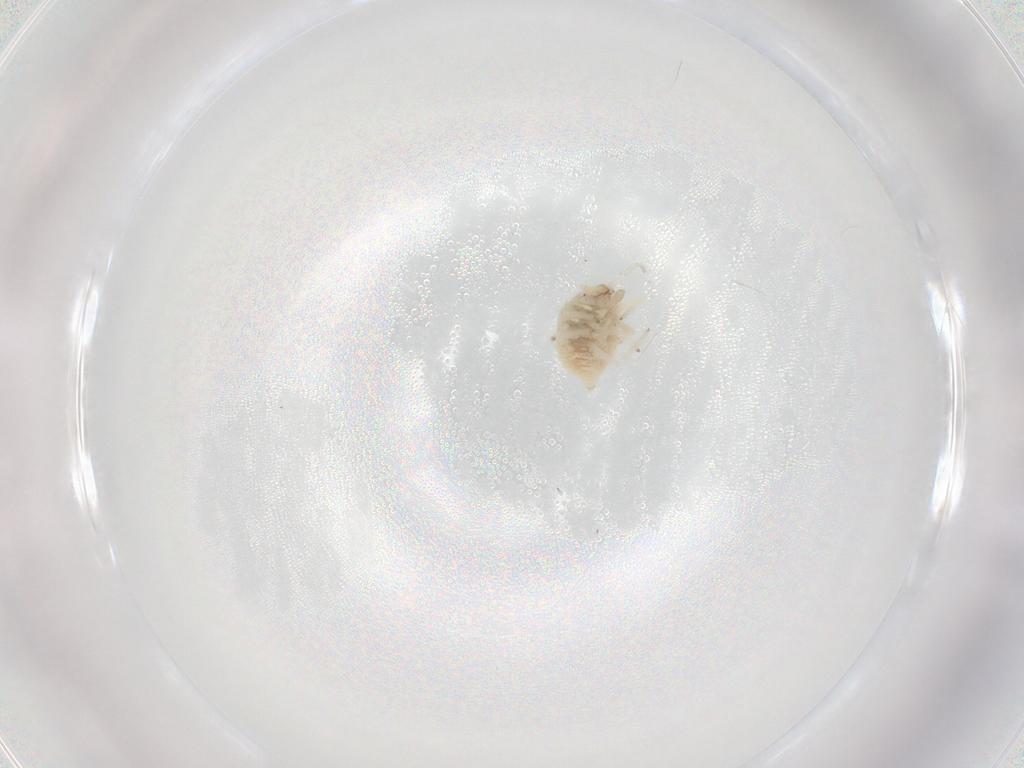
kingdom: Animalia
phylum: Arthropoda
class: Insecta
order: Neuroptera
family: Coniopterygidae
